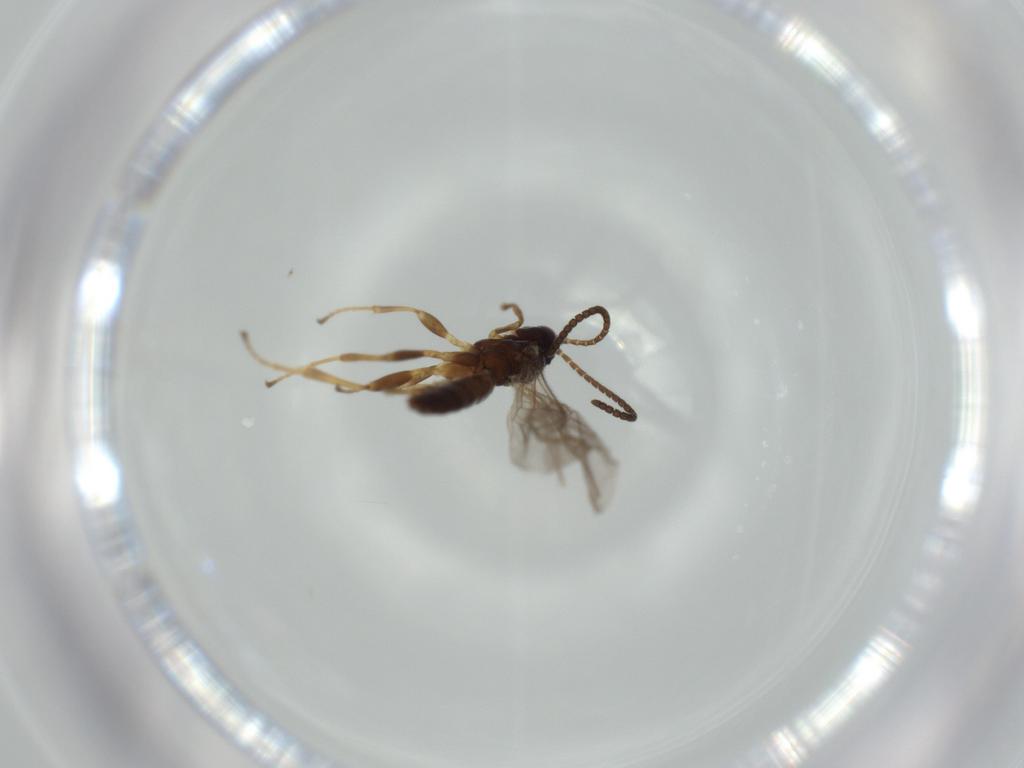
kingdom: Animalia
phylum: Arthropoda
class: Insecta
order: Hymenoptera
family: Ichneumonidae
